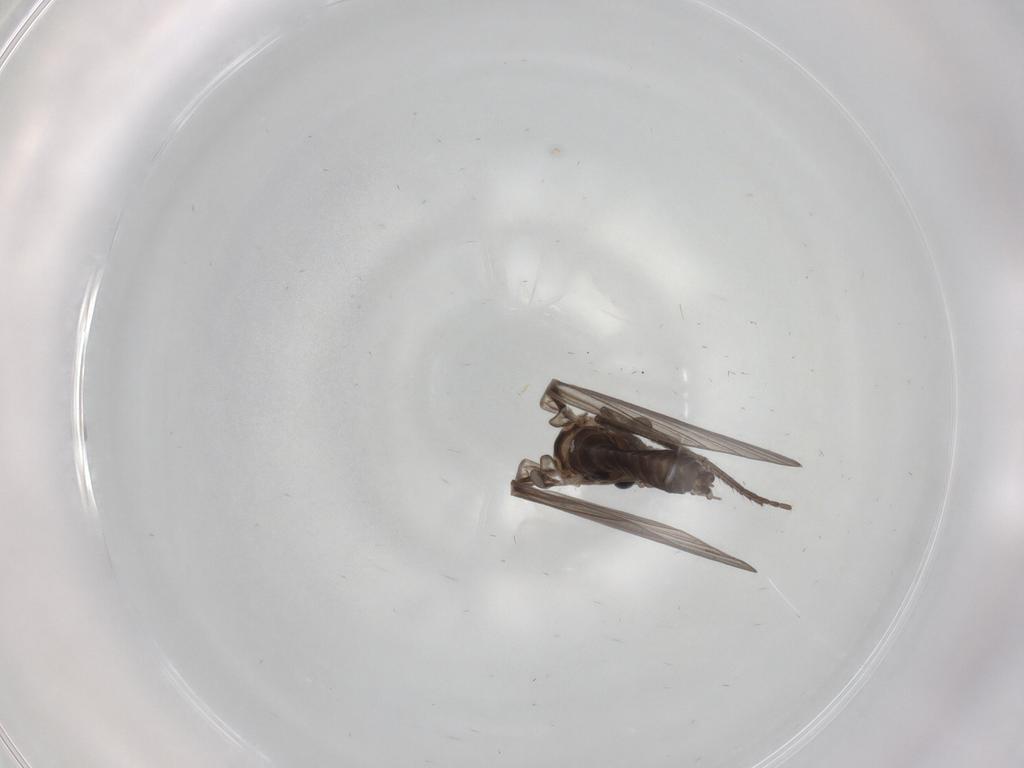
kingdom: Animalia
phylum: Arthropoda
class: Insecta
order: Diptera
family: Psychodidae
